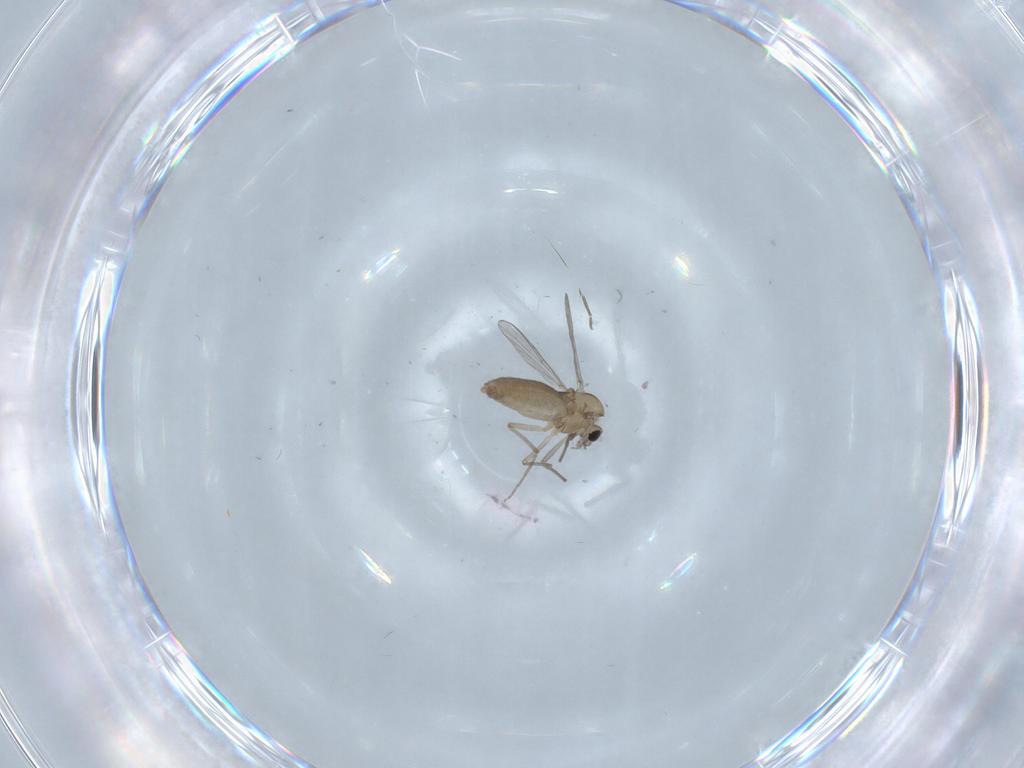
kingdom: Animalia
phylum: Arthropoda
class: Insecta
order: Diptera
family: Chironomidae
